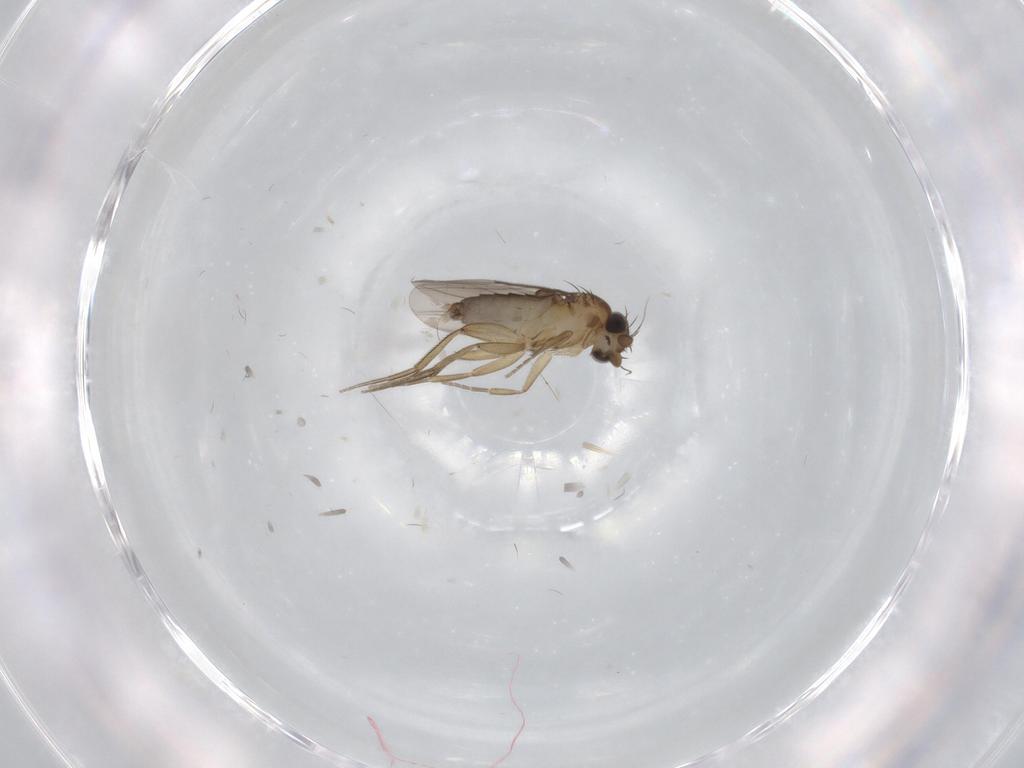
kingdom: Animalia
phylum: Arthropoda
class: Insecta
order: Diptera
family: Phoridae
